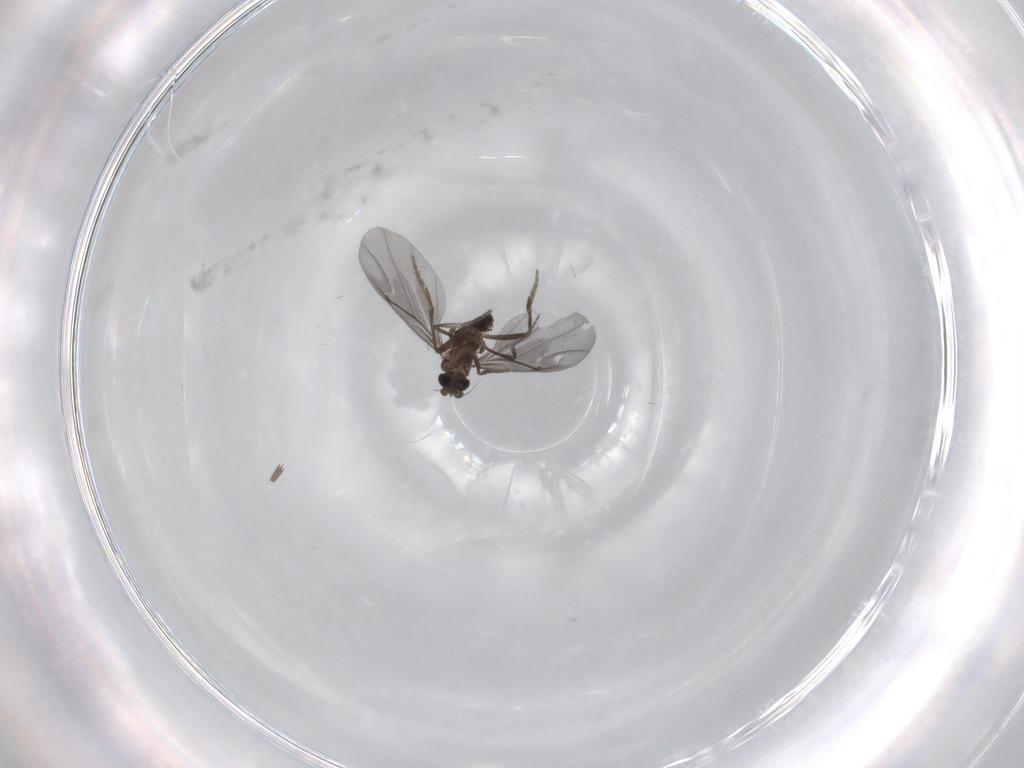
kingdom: Animalia
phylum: Arthropoda
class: Insecta
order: Diptera
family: Phoridae
